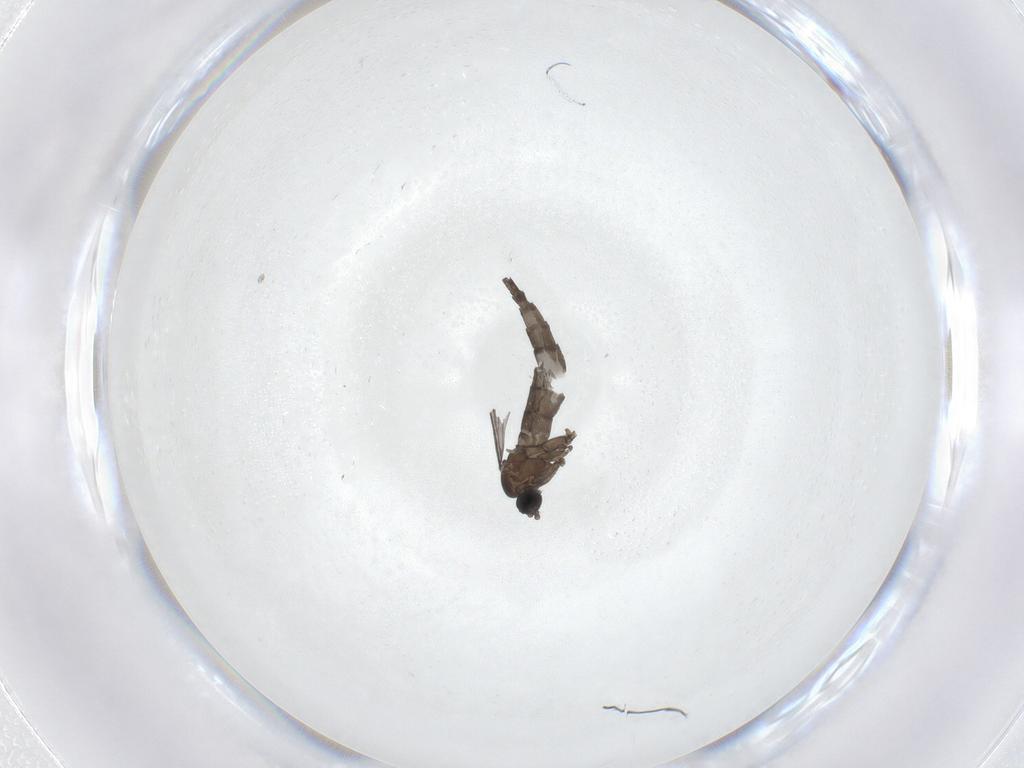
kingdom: Animalia
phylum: Arthropoda
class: Insecta
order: Diptera
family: Sciaridae
